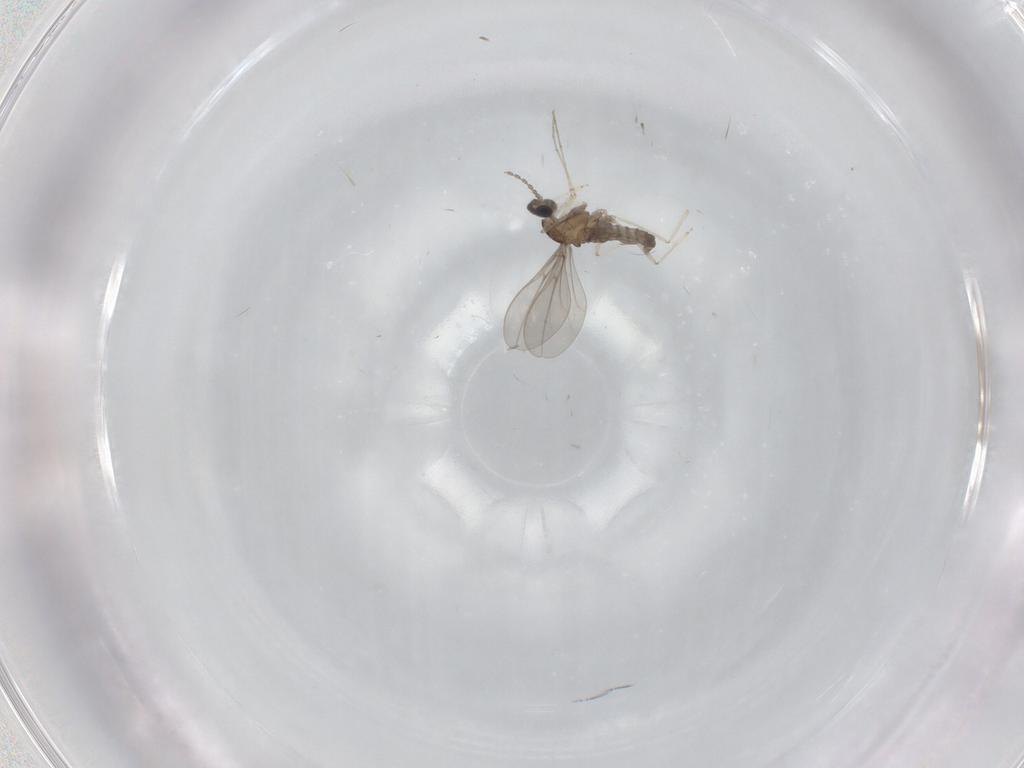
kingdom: Animalia
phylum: Arthropoda
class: Insecta
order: Diptera
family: Cecidomyiidae
